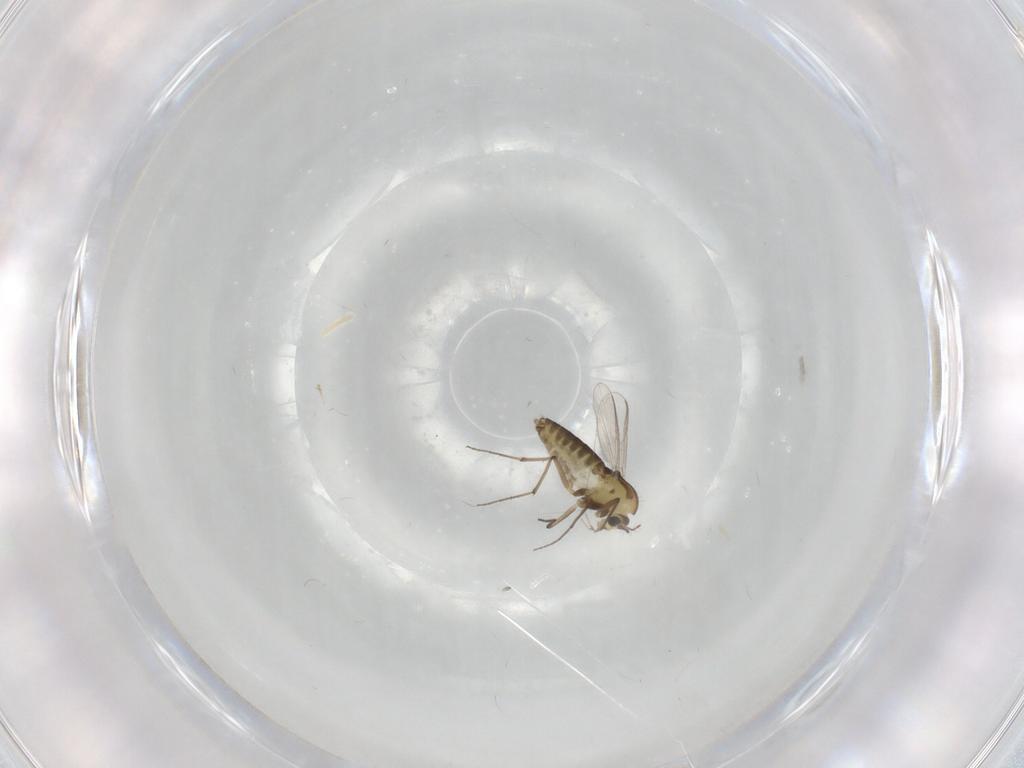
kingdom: Animalia
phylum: Arthropoda
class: Insecta
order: Diptera
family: Chironomidae
